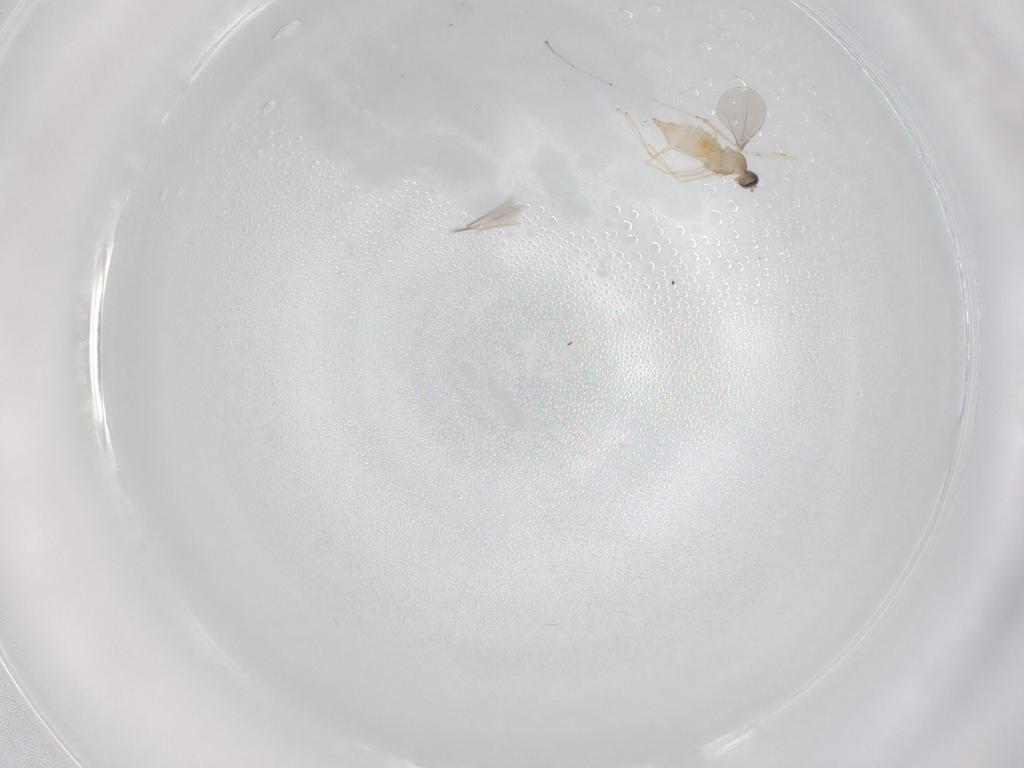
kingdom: Animalia
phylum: Arthropoda
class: Insecta
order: Diptera
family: Cecidomyiidae
